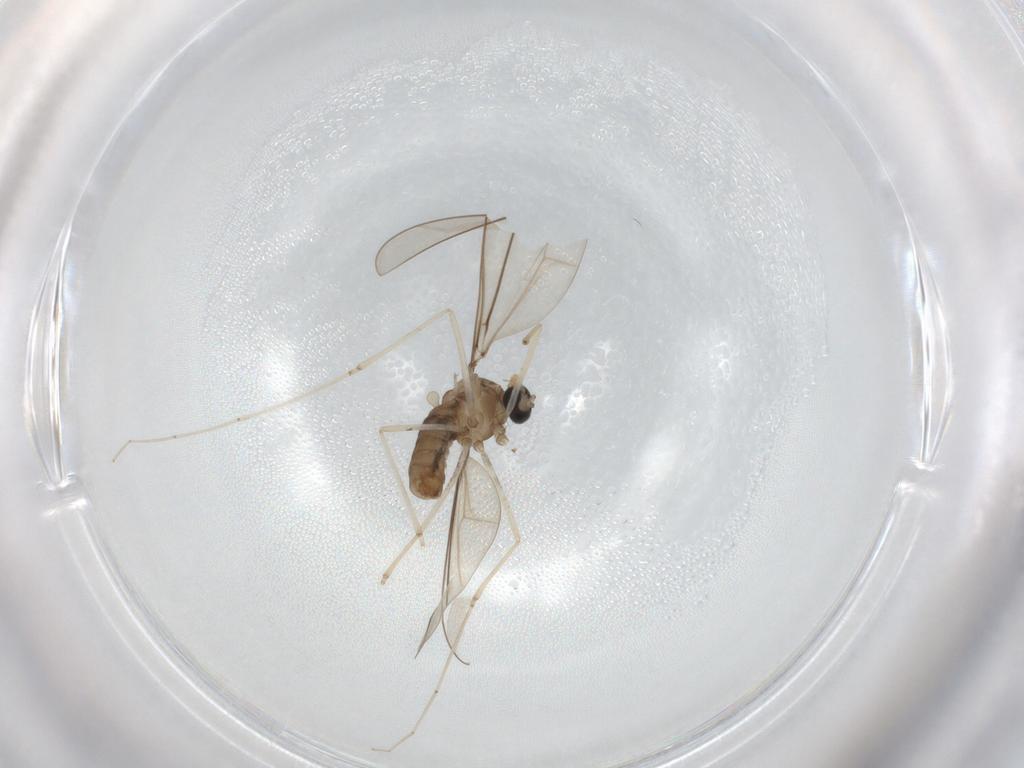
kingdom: Animalia
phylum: Arthropoda
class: Insecta
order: Diptera
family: Cecidomyiidae
